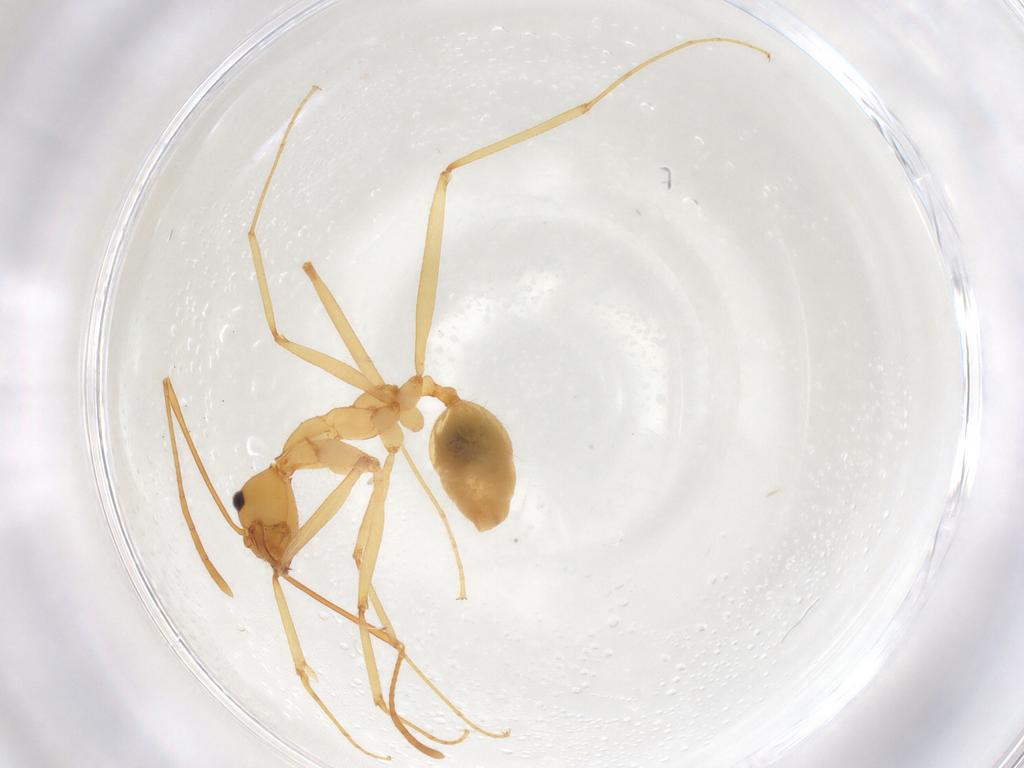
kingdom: Animalia
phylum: Arthropoda
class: Insecta
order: Hymenoptera
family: Formicidae
